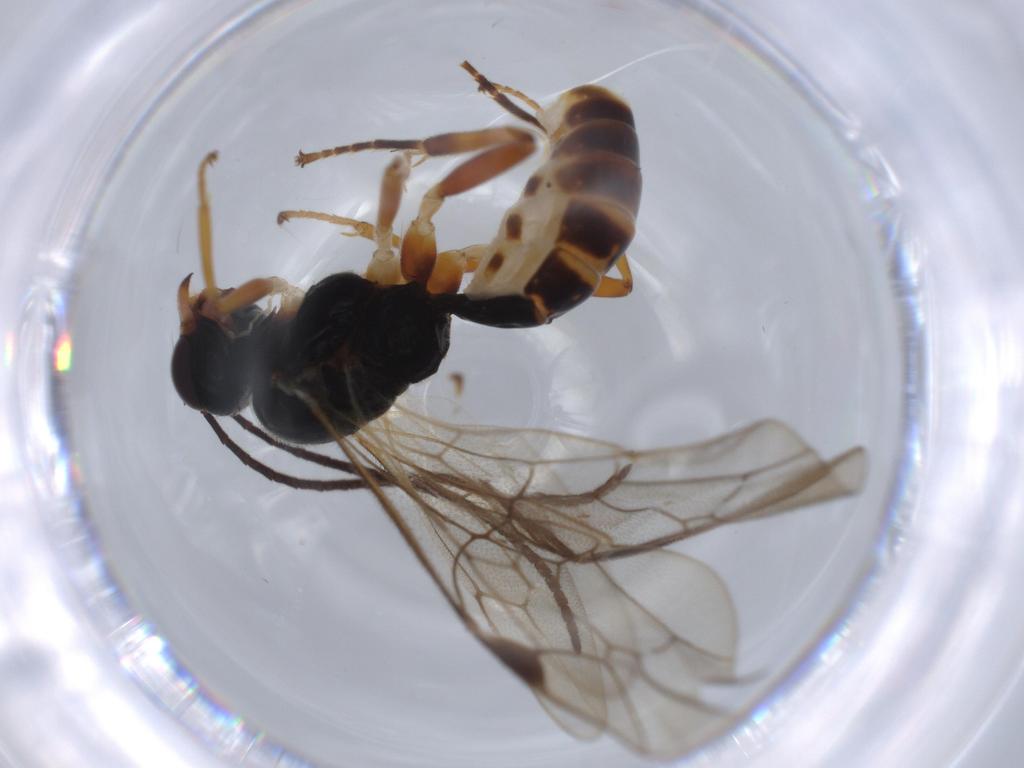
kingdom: Animalia
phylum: Arthropoda
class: Insecta
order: Hymenoptera
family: Ichneumonidae
